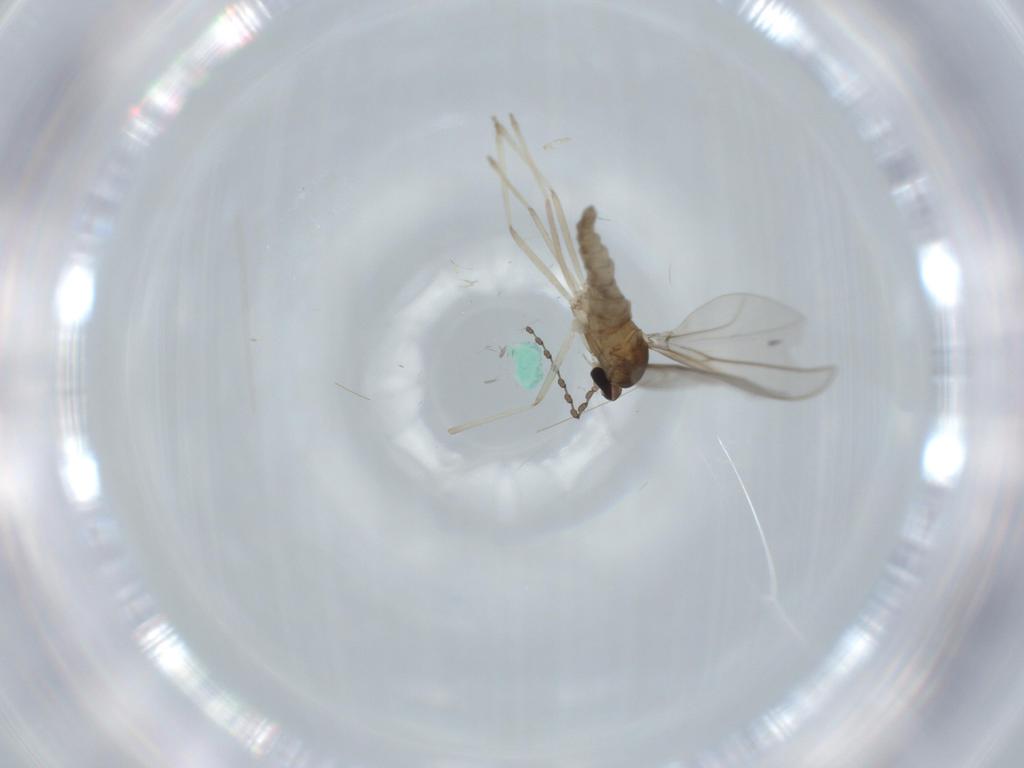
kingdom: Animalia
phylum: Arthropoda
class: Insecta
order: Diptera
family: Cecidomyiidae
